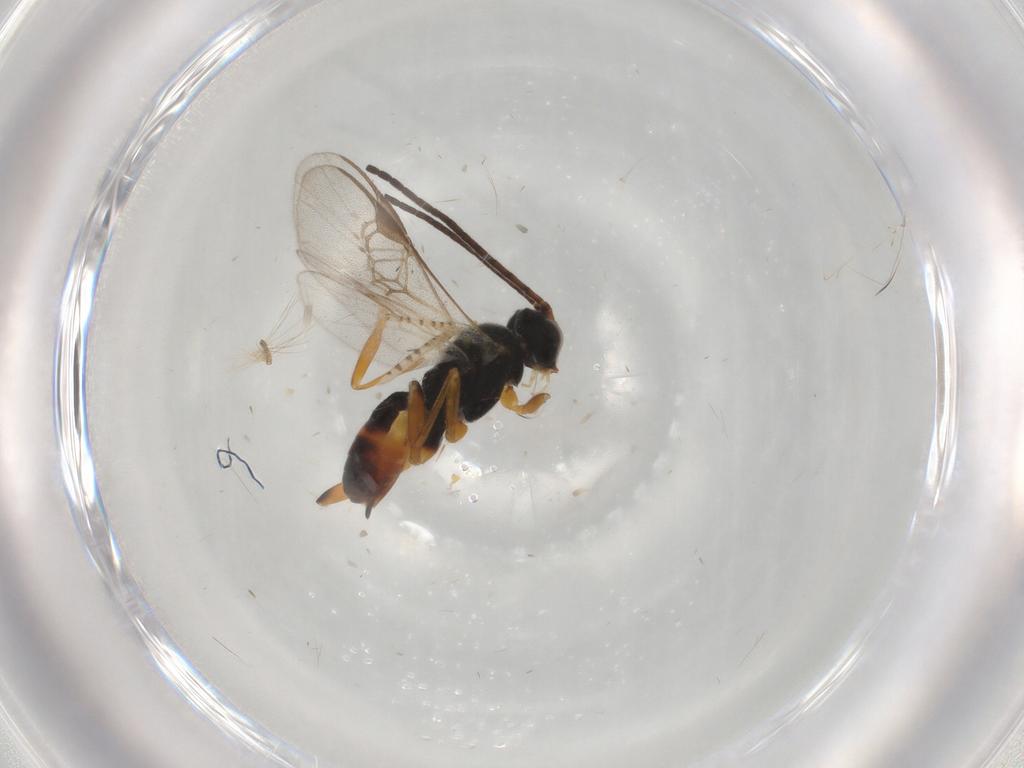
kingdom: Animalia
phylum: Arthropoda
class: Insecta
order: Hymenoptera
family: Braconidae
